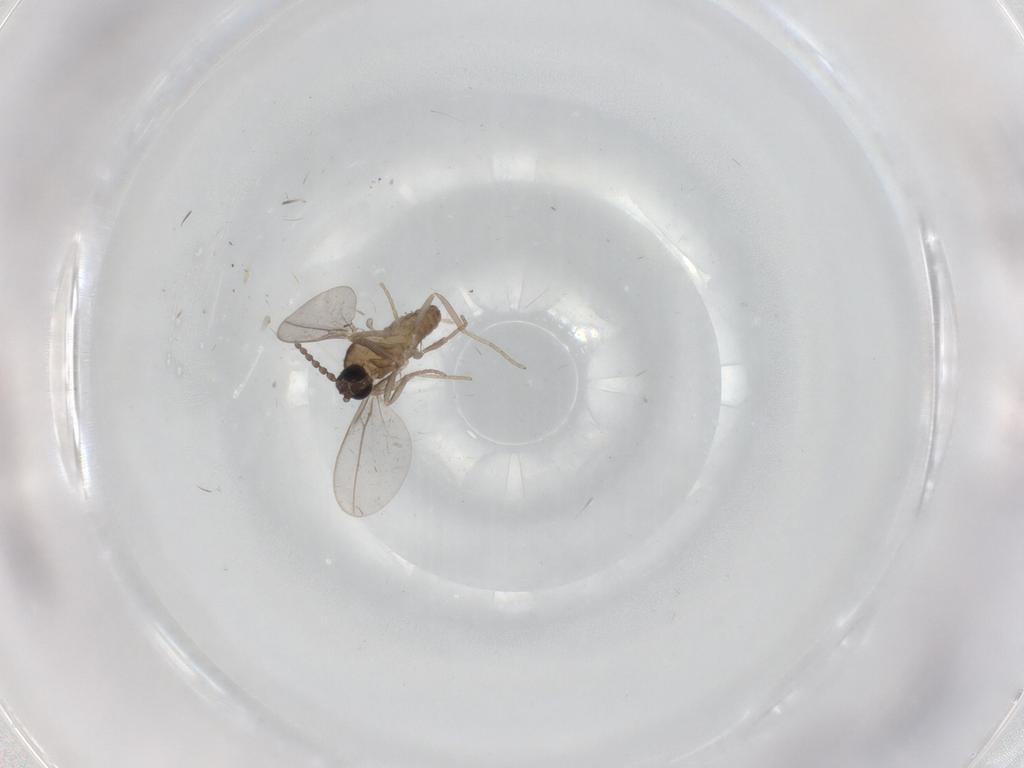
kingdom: Animalia
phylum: Arthropoda
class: Insecta
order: Diptera
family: Cecidomyiidae
